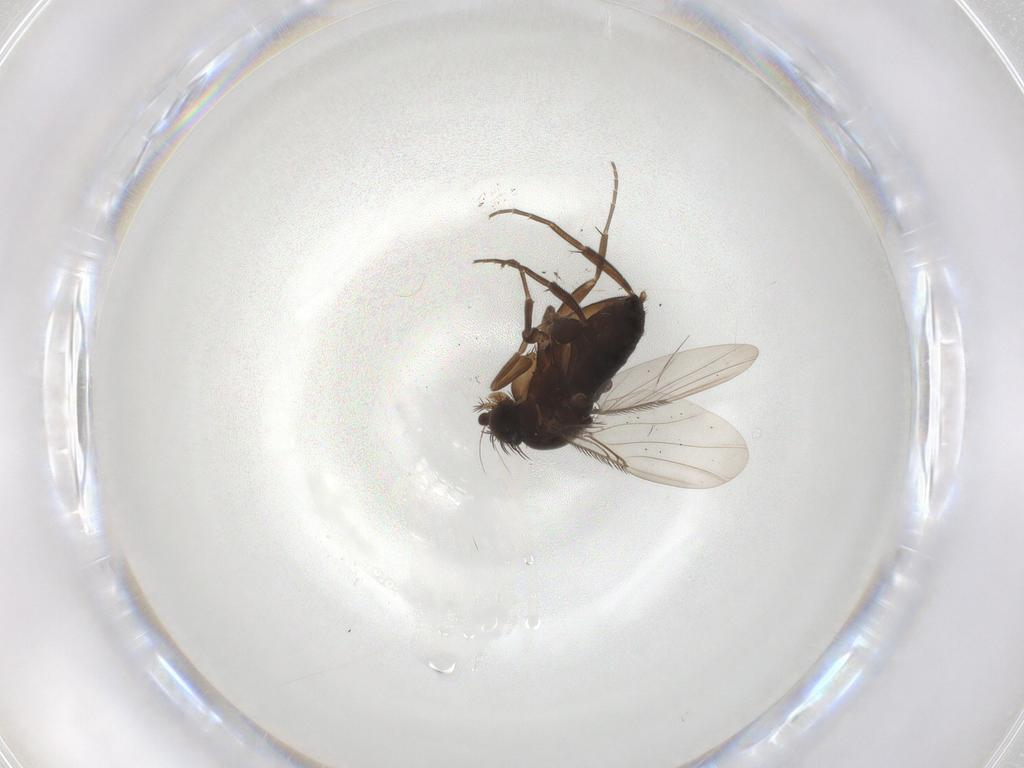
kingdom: Animalia
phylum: Arthropoda
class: Insecta
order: Diptera
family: Phoridae
